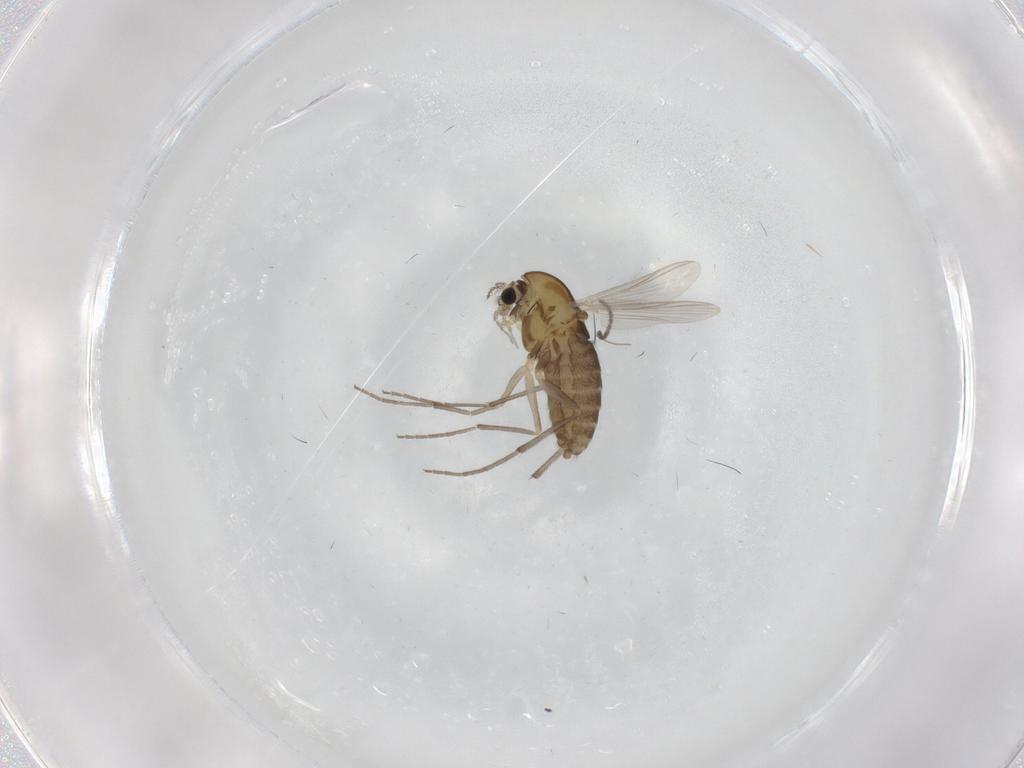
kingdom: Animalia
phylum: Arthropoda
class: Insecta
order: Diptera
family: Chironomidae
